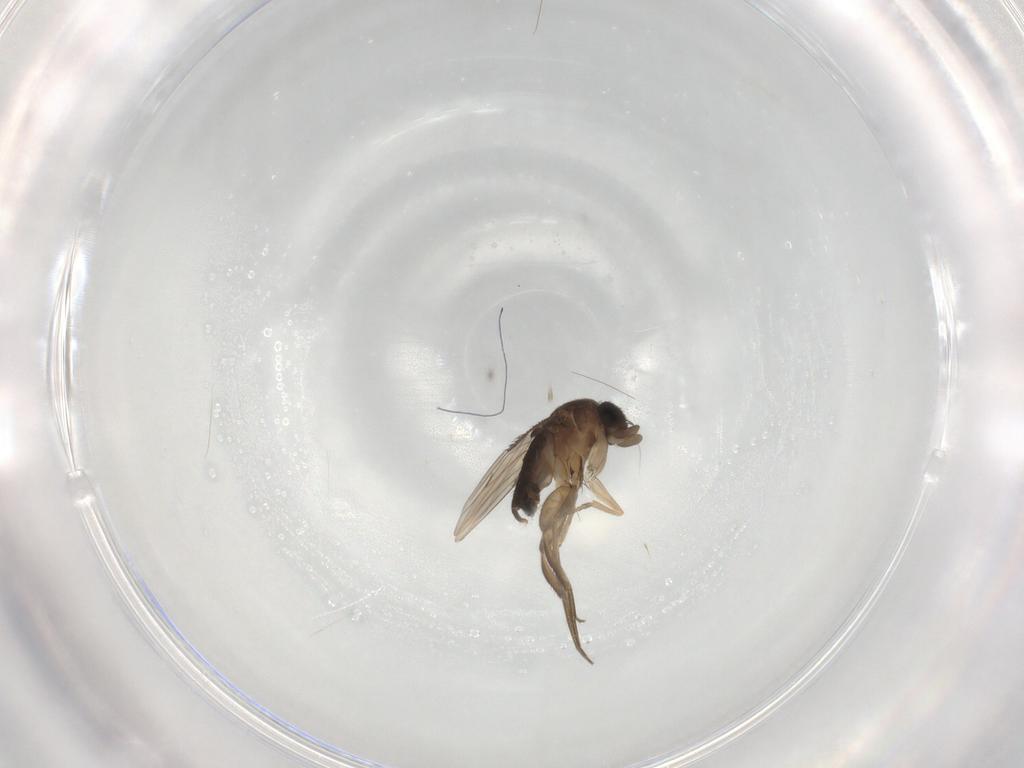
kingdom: Animalia
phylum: Arthropoda
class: Insecta
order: Diptera
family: Phoridae
